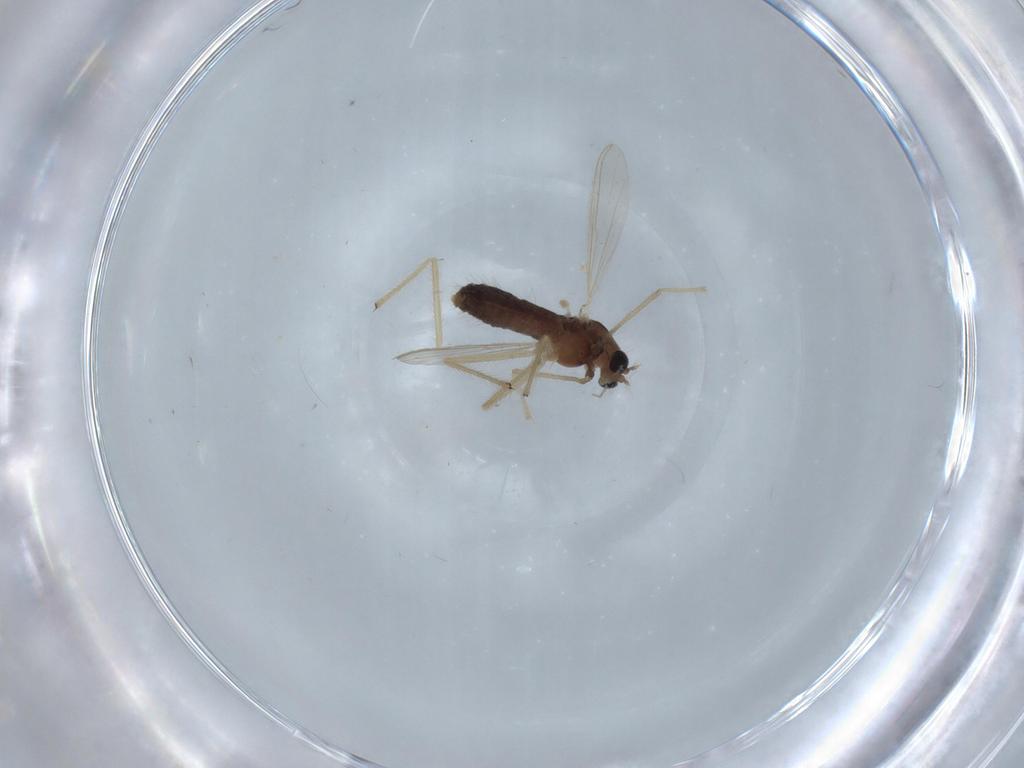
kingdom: Animalia
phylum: Arthropoda
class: Insecta
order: Diptera
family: Chironomidae
